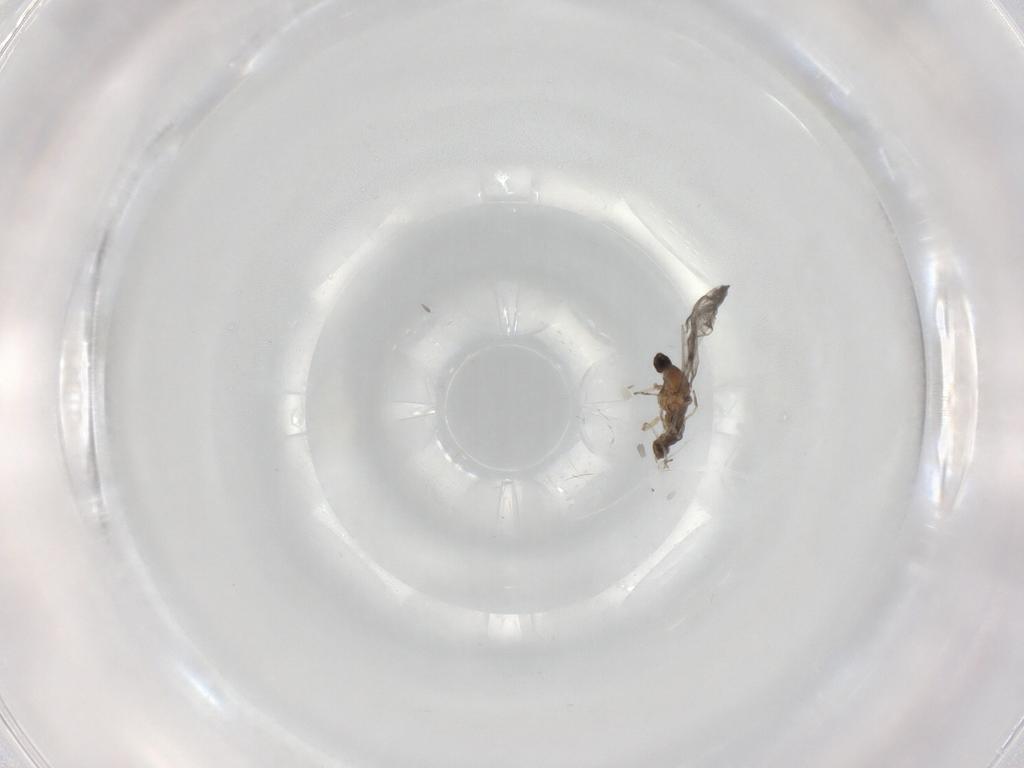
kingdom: Animalia
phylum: Arthropoda
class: Insecta
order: Diptera
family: Cecidomyiidae
